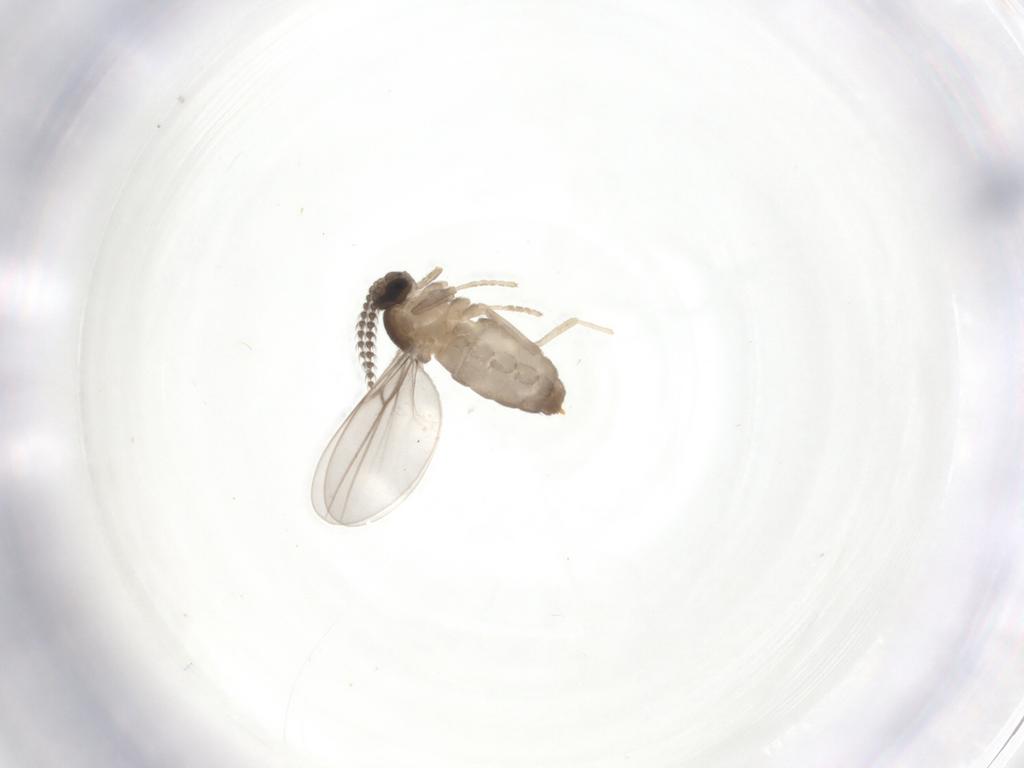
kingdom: Animalia
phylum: Arthropoda
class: Insecta
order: Diptera
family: Cecidomyiidae
